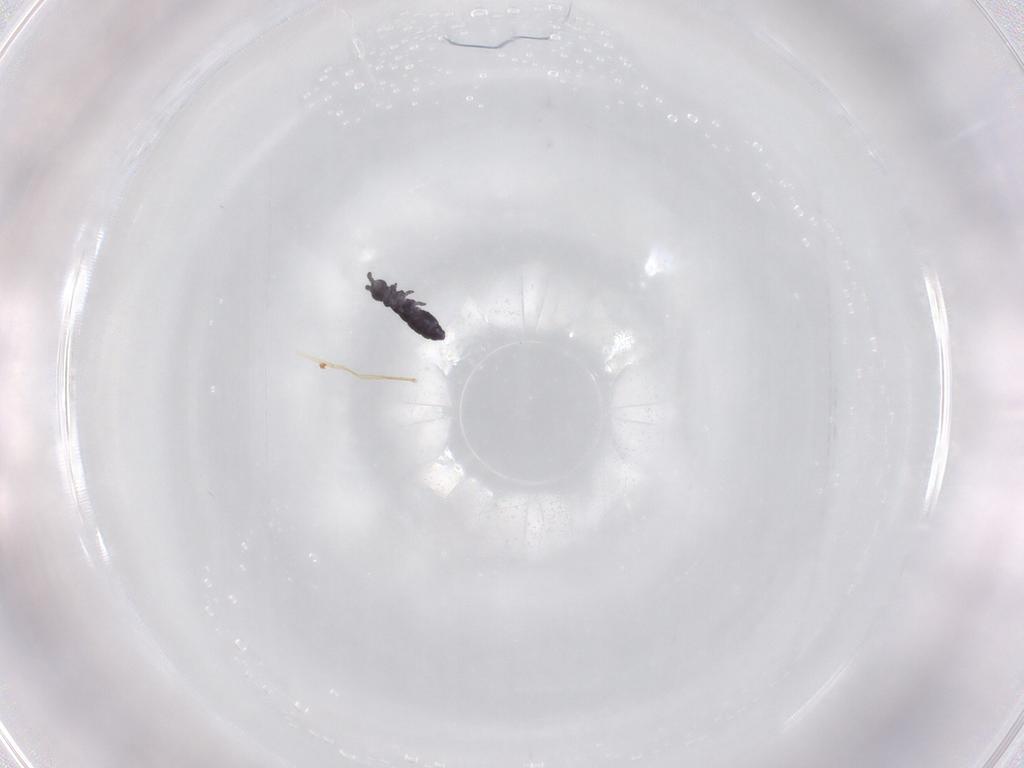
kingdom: Animalia
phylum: Arthropoda
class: Collembola
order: Poduromorpha
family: Hypogastruridae
